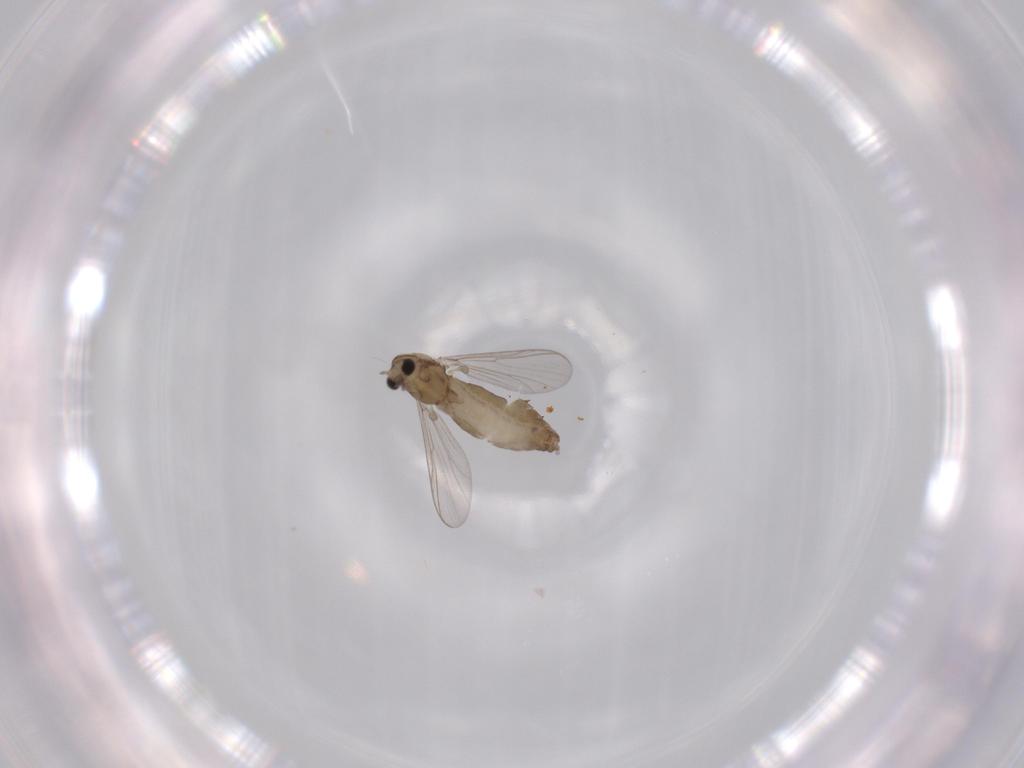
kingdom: Animalia
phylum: Arthropoda
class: Insecta
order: Diptera
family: Chironomidae
